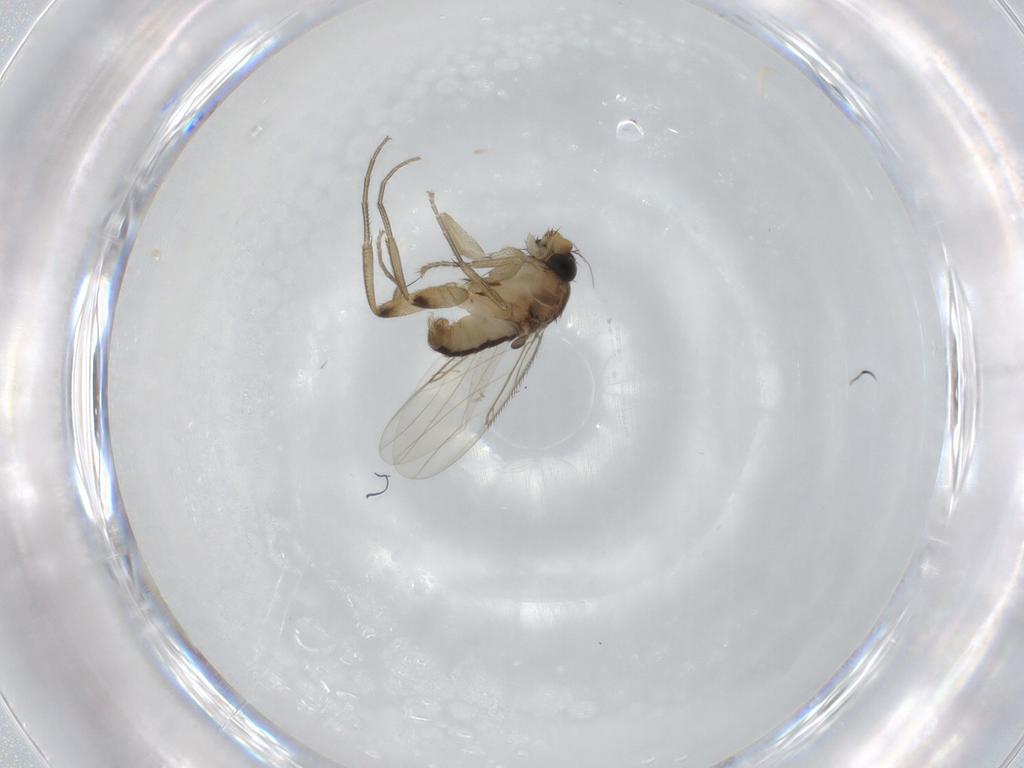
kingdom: Animalia
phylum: Arthropoda
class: Insecta
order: Diptera
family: Phoridae
